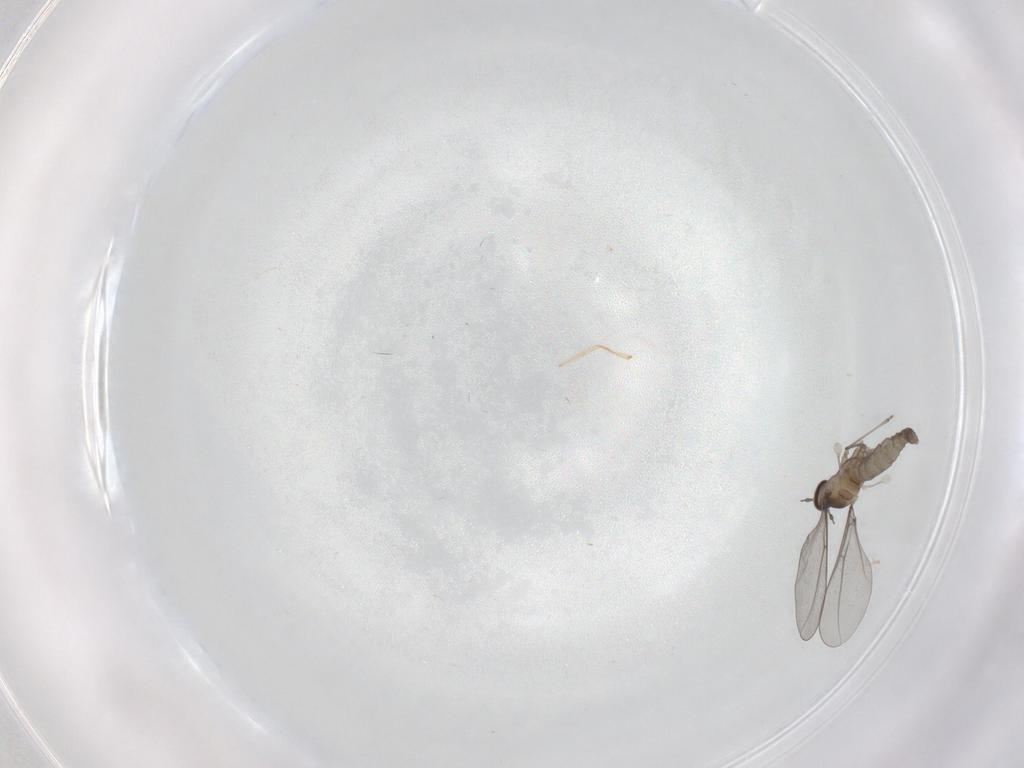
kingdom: Animalia
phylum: Arthropoda
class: Insecta
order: Diptera
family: Cecidomyiidae
